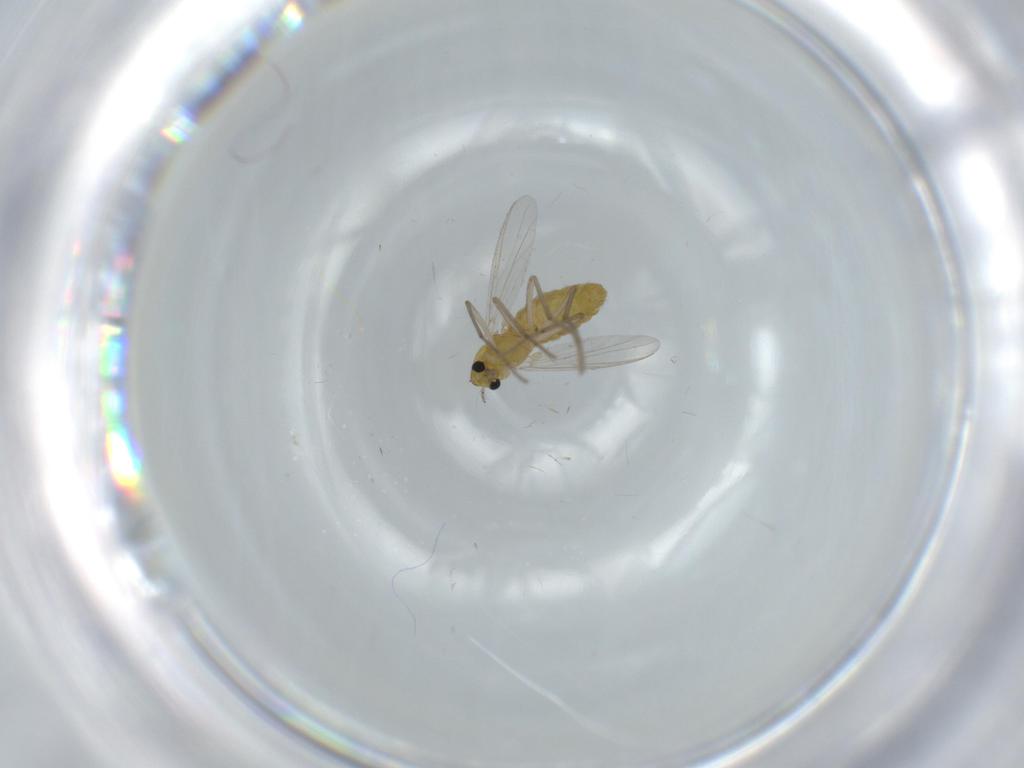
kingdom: Animalia
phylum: Arthropoda
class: Insecta
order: Diptera
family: Chironomidae
